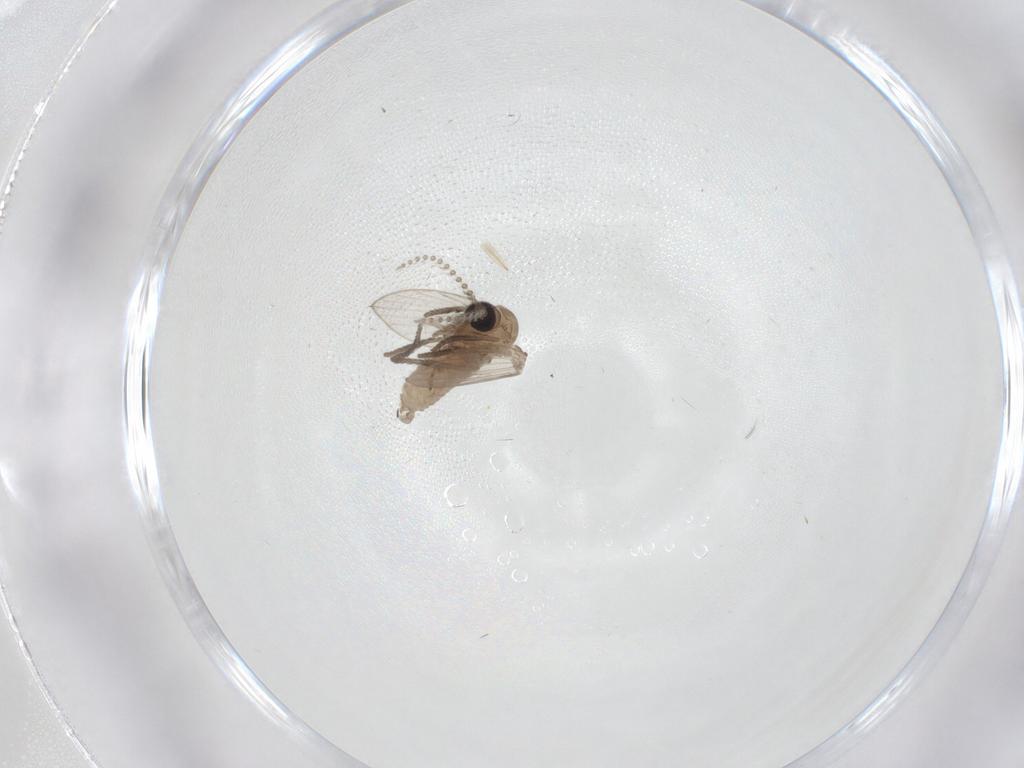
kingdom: Animalia
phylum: Arthropoda
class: Insecta
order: Diptera
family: Psychodidae
